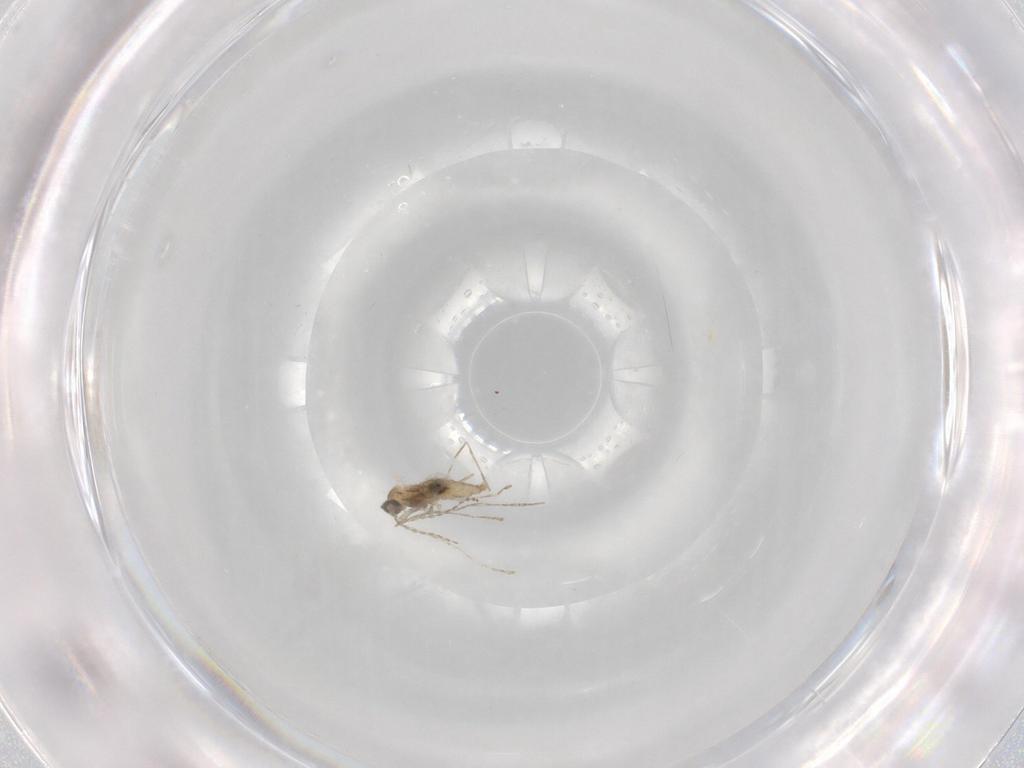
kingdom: Animalia
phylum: Arthropoda
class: Insecta
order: Diptera
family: Cecidomyiidae
